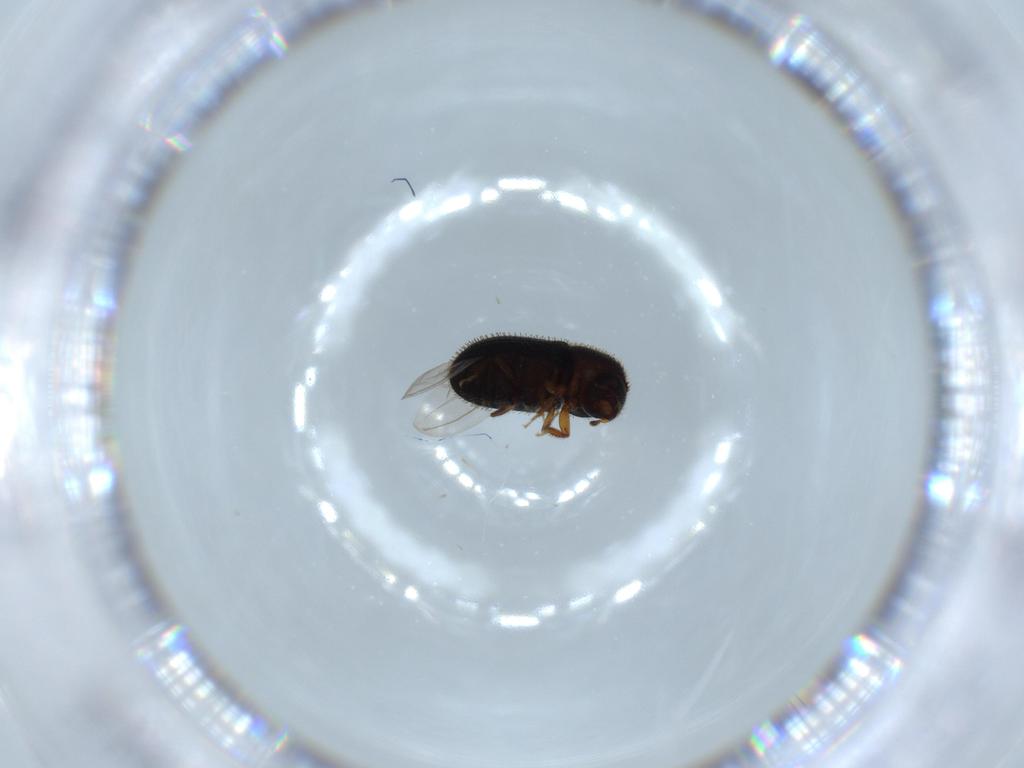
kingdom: Animalia
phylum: Arthropoda
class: Insecta
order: Coleoptera
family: Curculionidae
